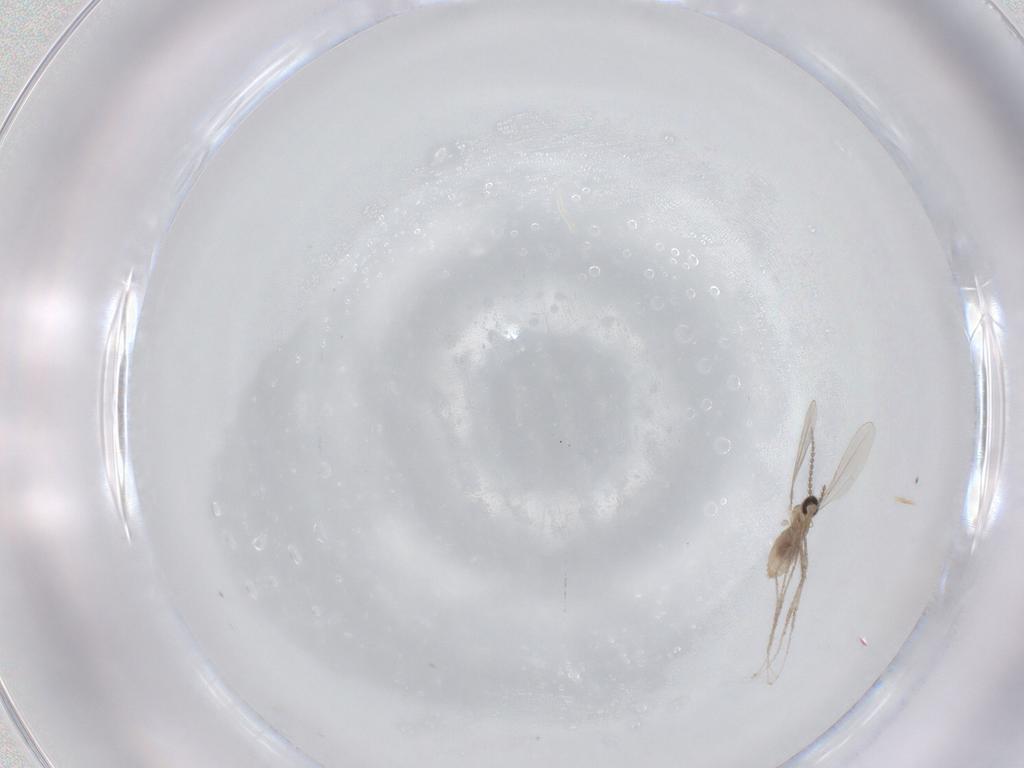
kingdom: Animalia
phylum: Arthropoda
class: Insecta
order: Diptera
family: Cecidomyiidae
